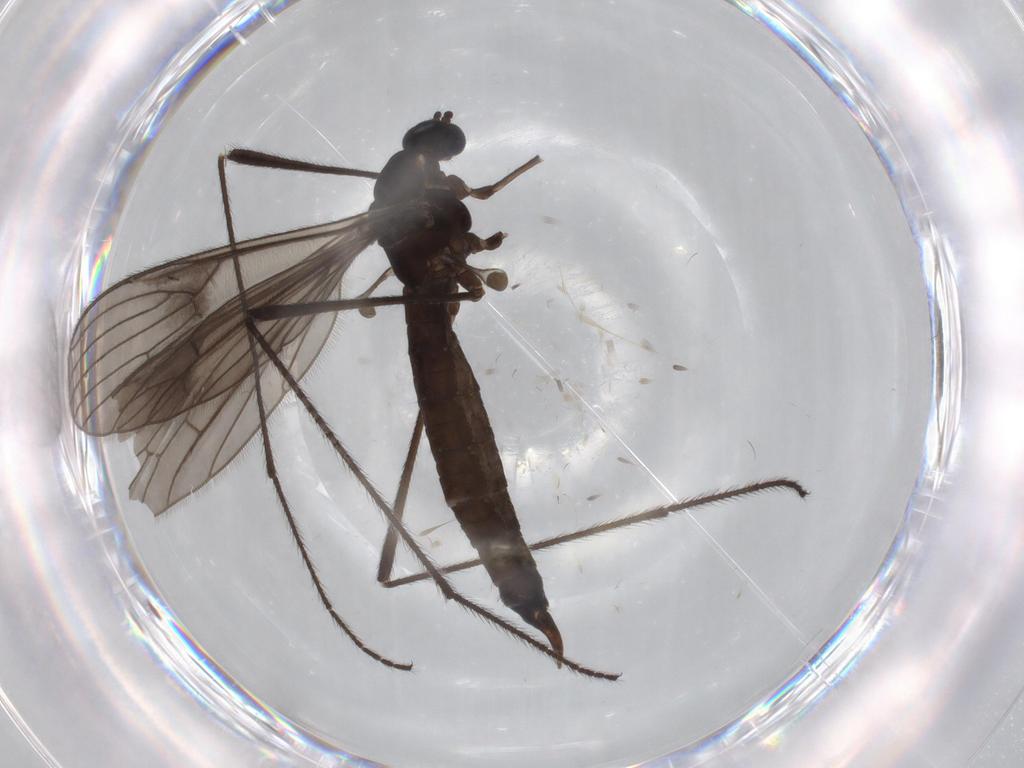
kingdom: Animalia
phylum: Arthropoda
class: Insecta
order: Diptera
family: Limoniidae
